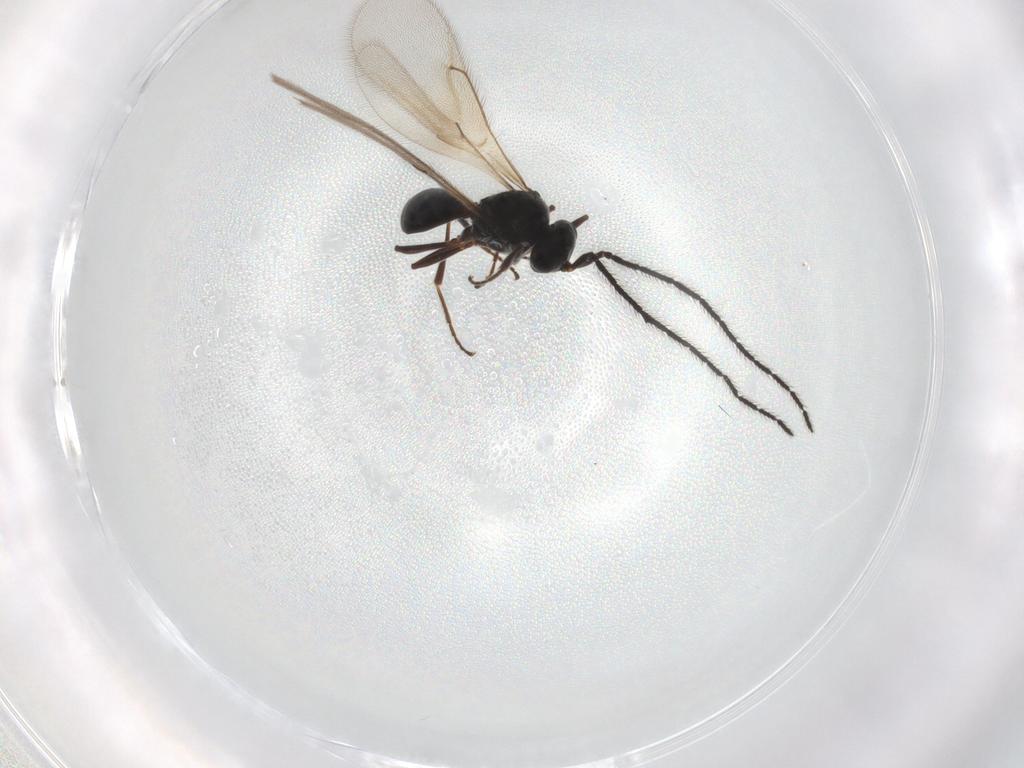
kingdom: Animalia
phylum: Arthropoda
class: Insecta
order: Hymenoptera
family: Scelionidae
